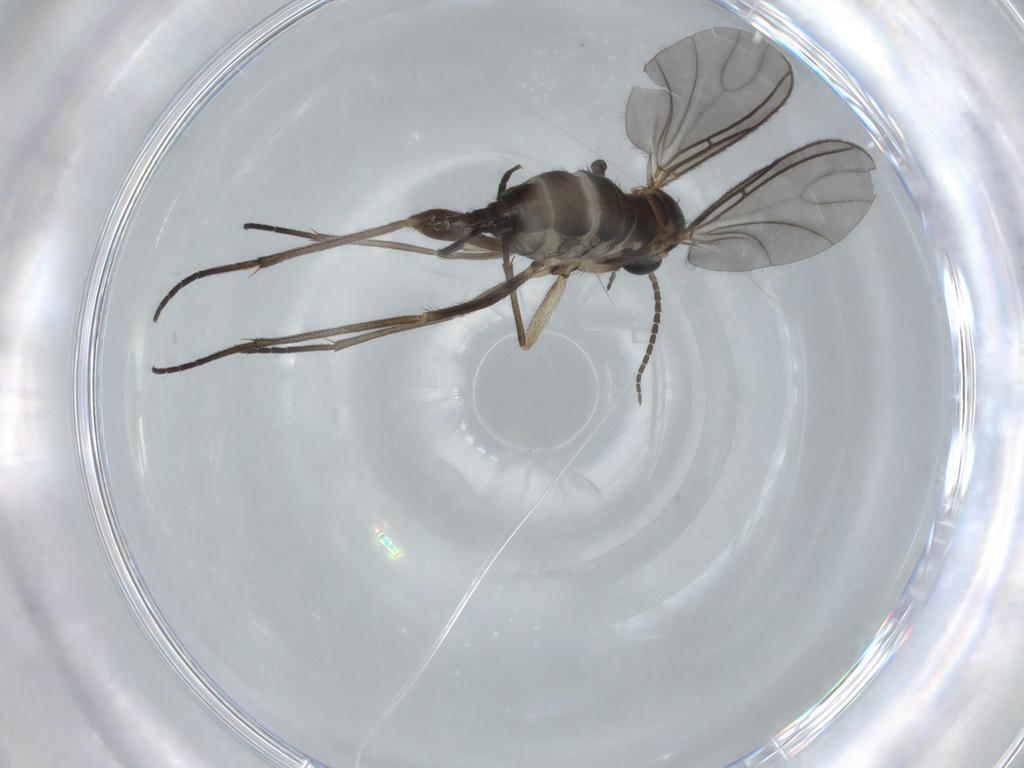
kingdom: Animalia
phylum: Arthropoda
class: Insecta
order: Diptera
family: Sciaridae
